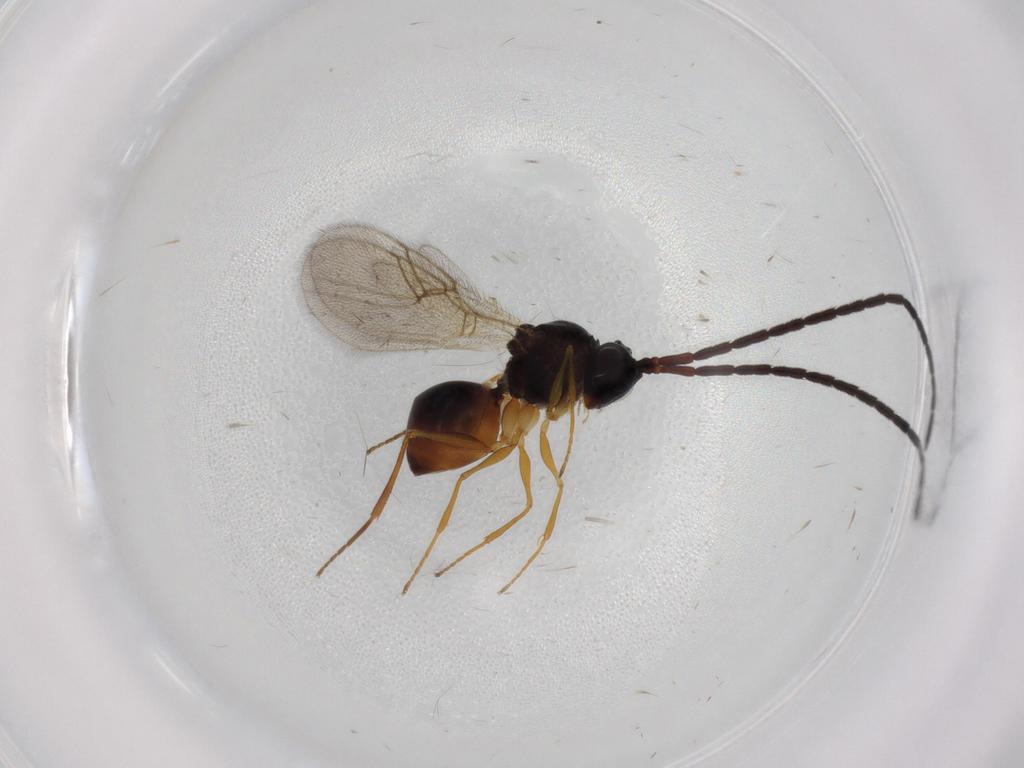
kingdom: Animalia
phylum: Arthropoda
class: Insecta
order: Hymenoptera
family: Figitidae
